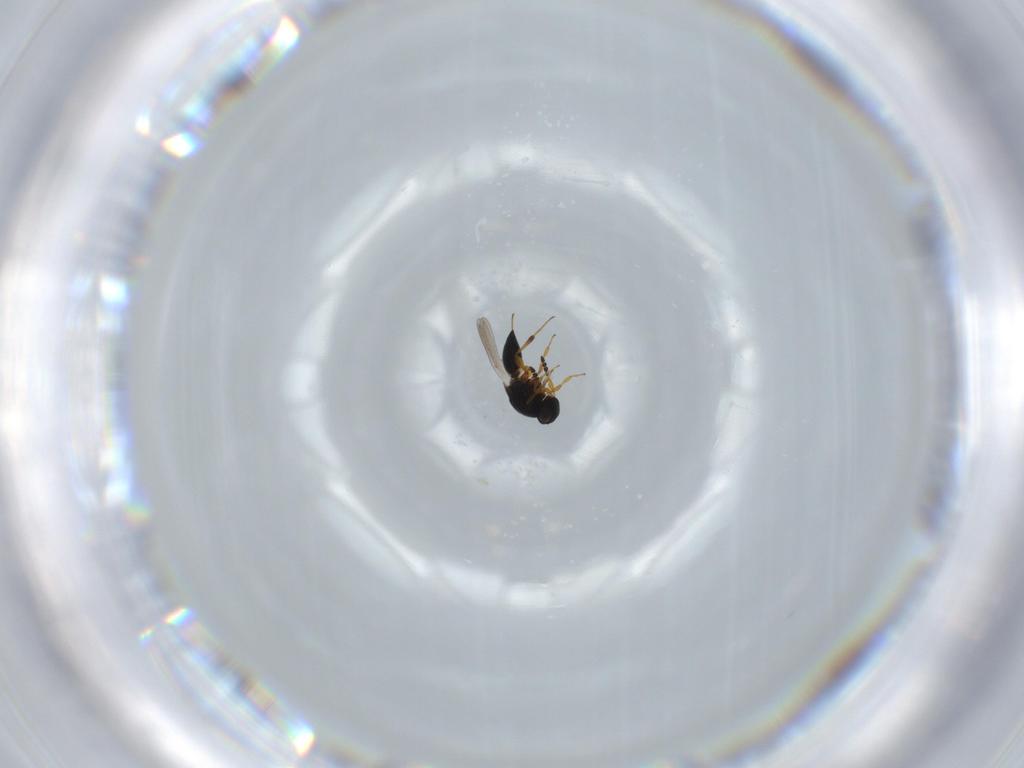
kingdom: Animalia
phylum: Arthropoda
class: Insecta
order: Hymenoptera
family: Platygastridae
